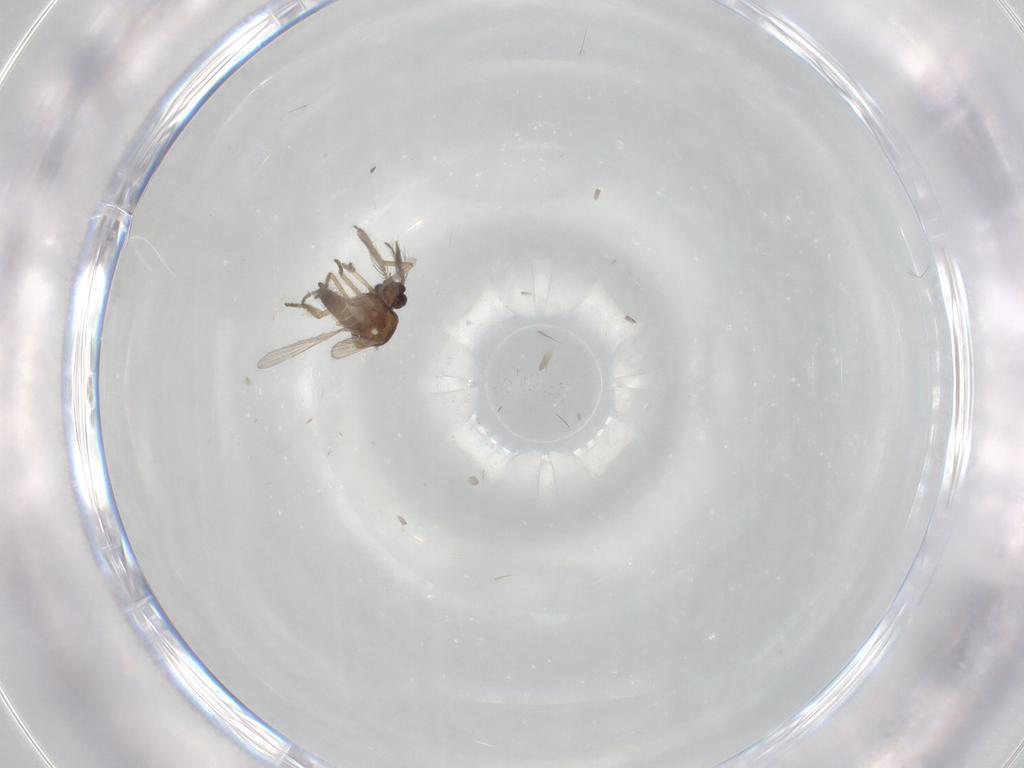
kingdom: Animalia
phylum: Arthropoda
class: Insecta
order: Diptera
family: Ceratopogonidae
